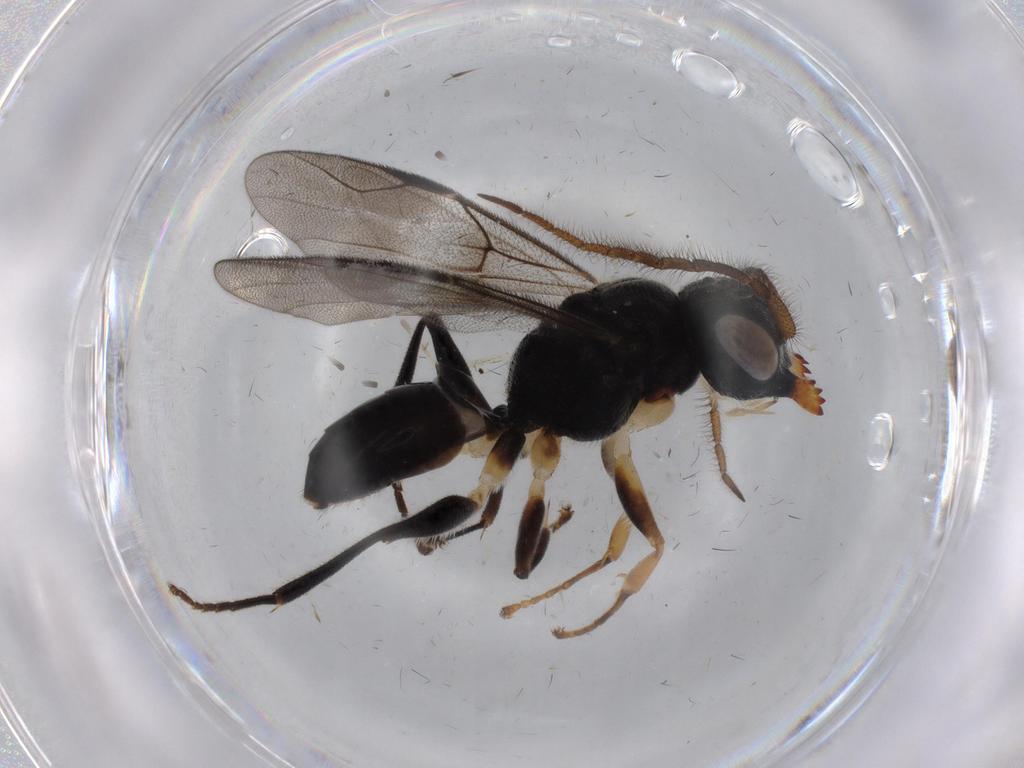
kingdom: Animalia
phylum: Arthropoda
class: Insecta
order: Hymenoptera
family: Dryinidae
